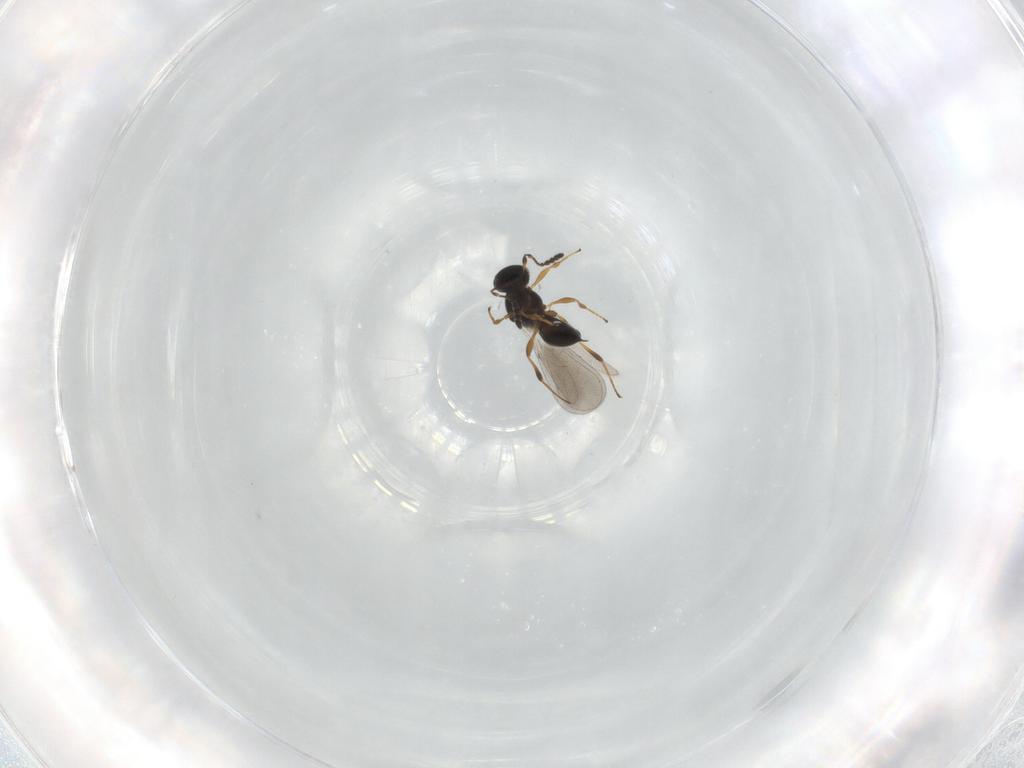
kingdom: Animalia
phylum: Arthropoda
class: Insecta
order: Hymenoptera
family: Platygastridae
